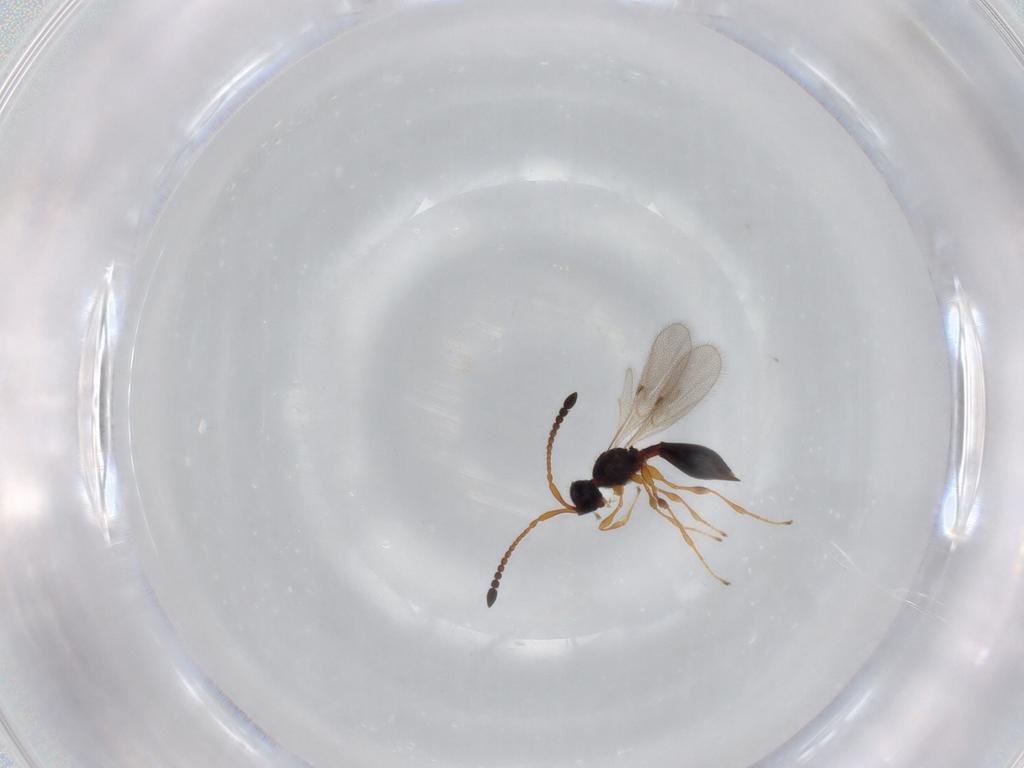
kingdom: Animalia
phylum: Arthropoda
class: Insecta
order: Hymenoptera
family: Diapriidae
